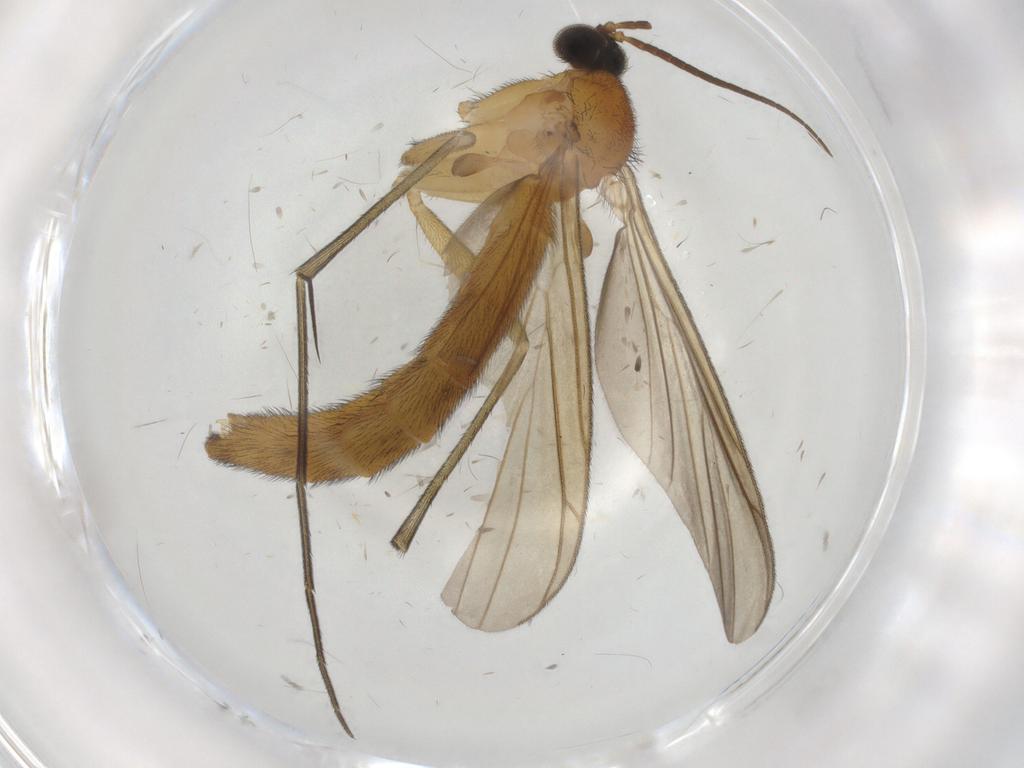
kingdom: Animalia
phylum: Arthropoda
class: Insecta
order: Diptera
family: Cecidomyiidae
